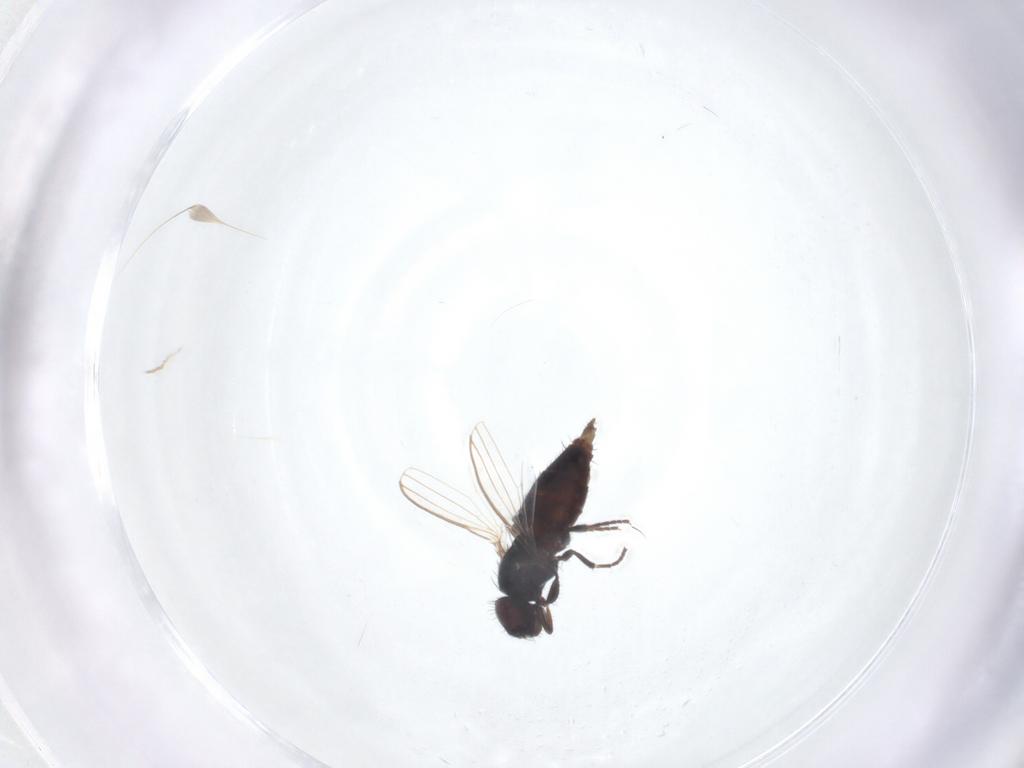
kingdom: Animalia
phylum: Arthropoda
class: Insecta
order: Diptera
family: Milichiidae
